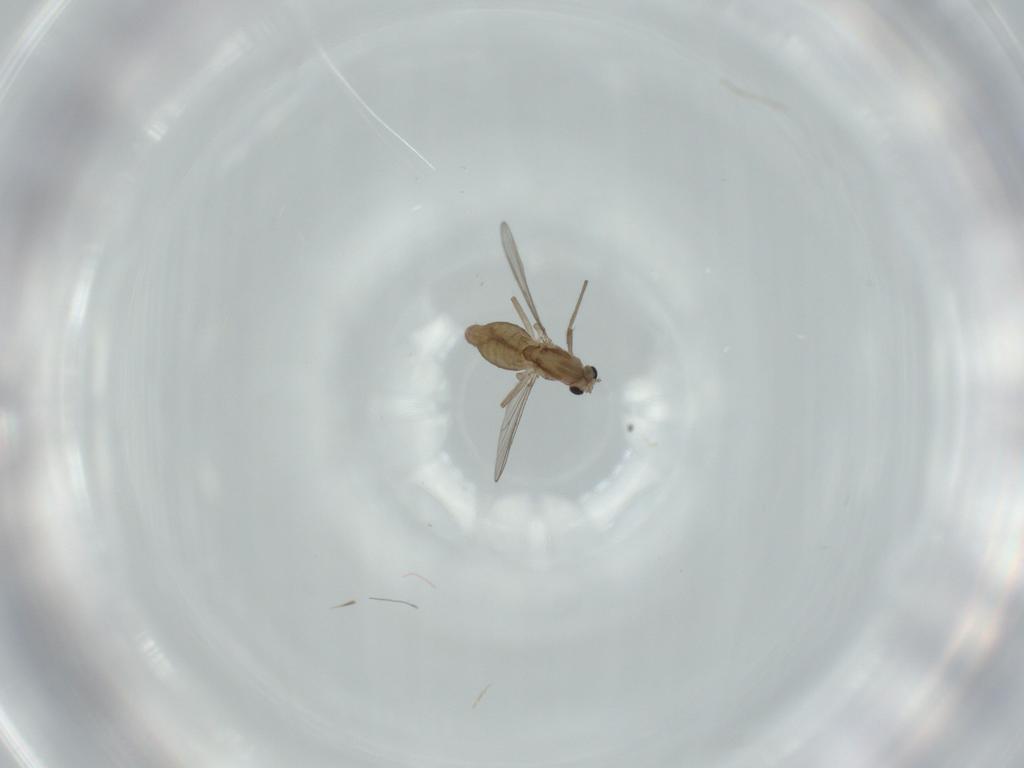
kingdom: Animalia
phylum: Arthropoda
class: Insecta
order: Diptera
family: Chironomidae
